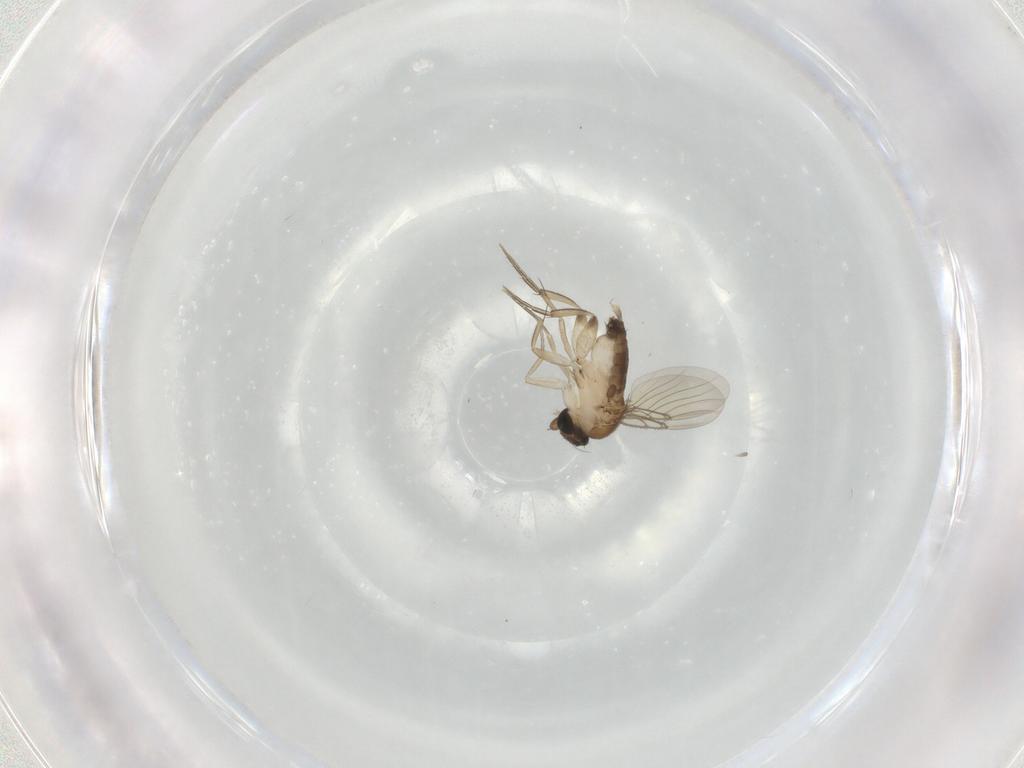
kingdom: Animalia
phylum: Arthropoda
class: Insecta
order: Diptera
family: Phoridae
